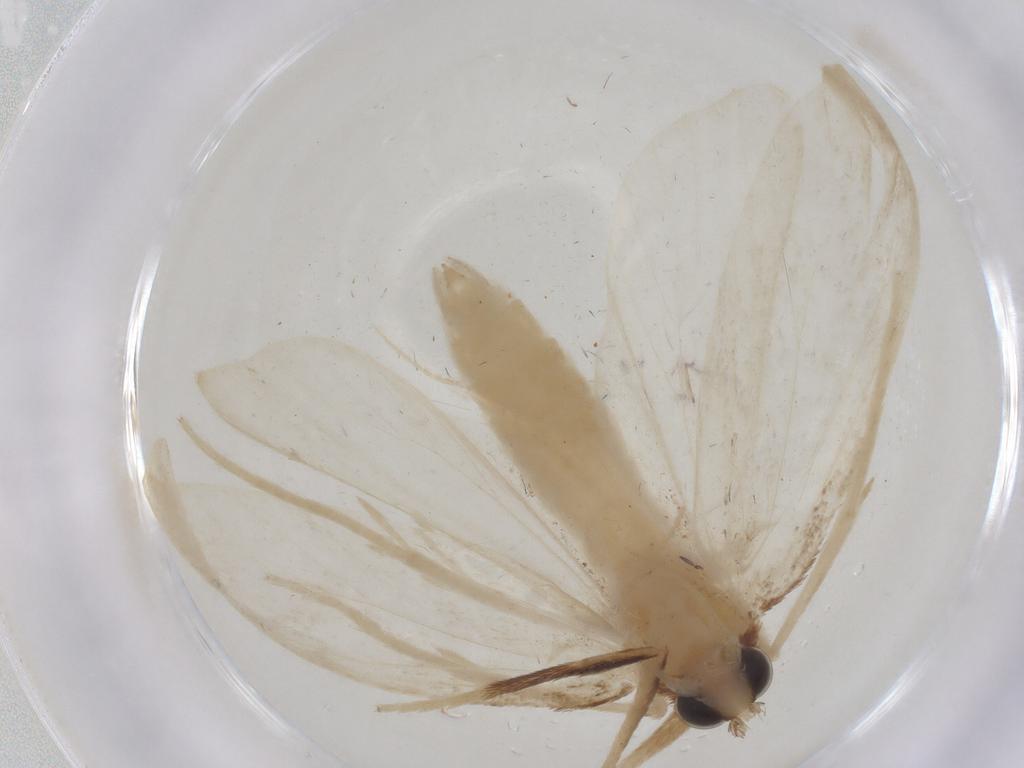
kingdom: Animalia
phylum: Arthropoda
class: Insecta
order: Lepidoptera
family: Crambidae
